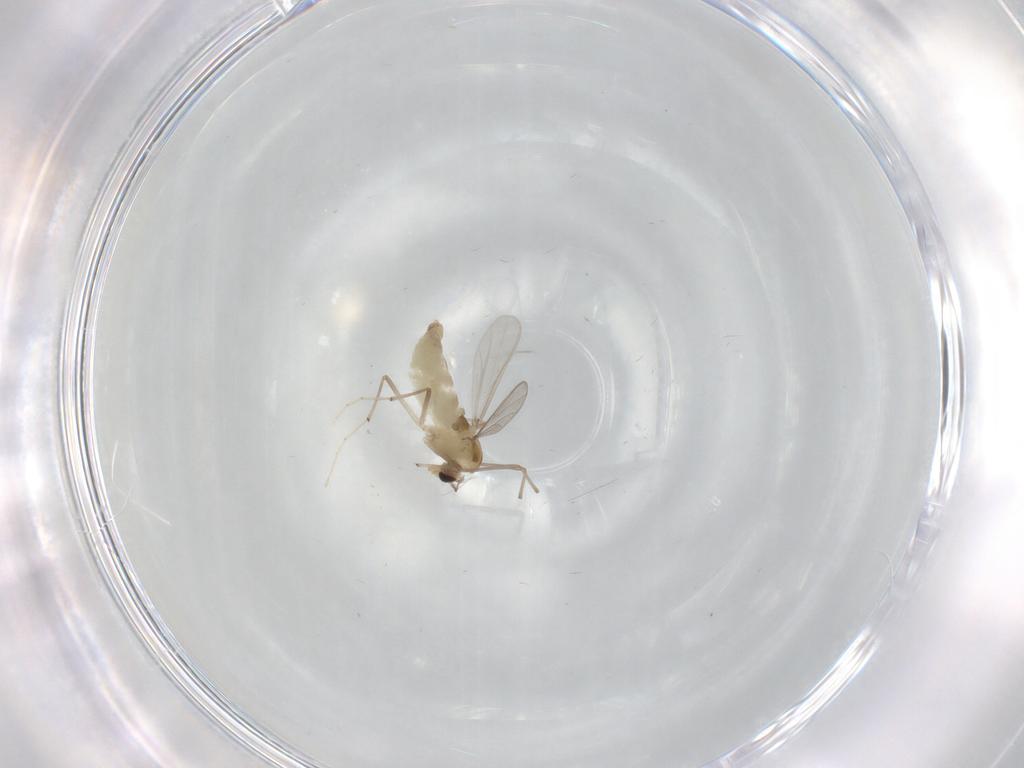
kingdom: Animalia
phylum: Arthropoda
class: Insecta
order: Diptera
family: Chironomidae
